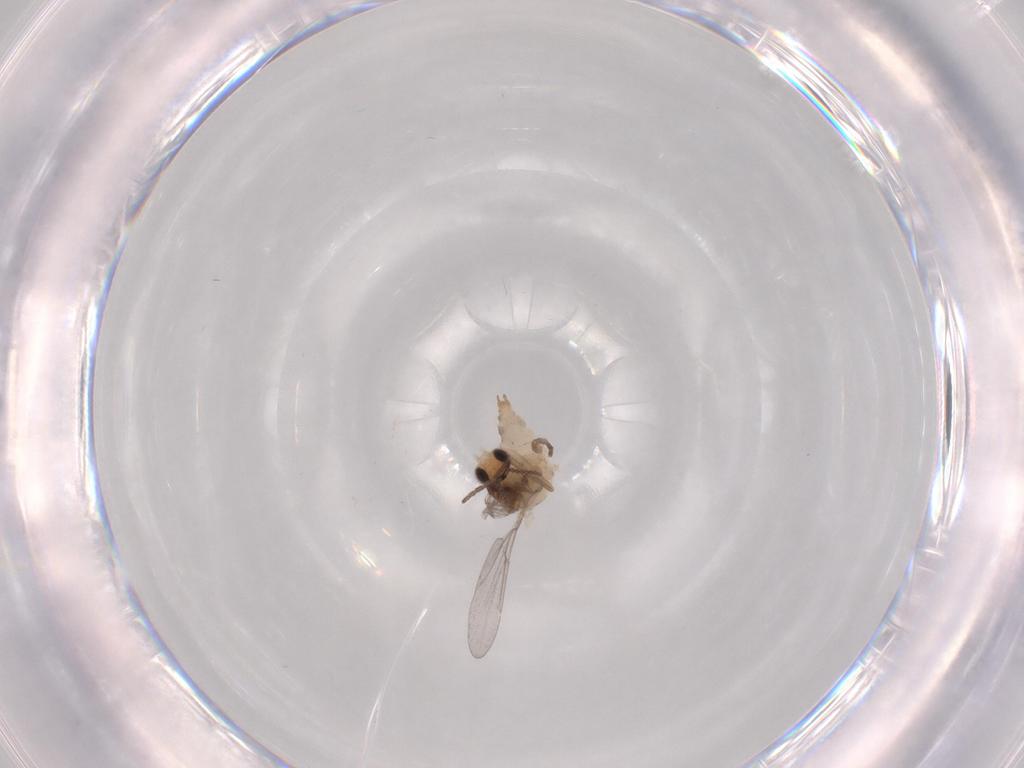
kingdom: Animalia
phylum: Arthropoda
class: Insecta
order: Diptera
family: Cecidomyiidae
